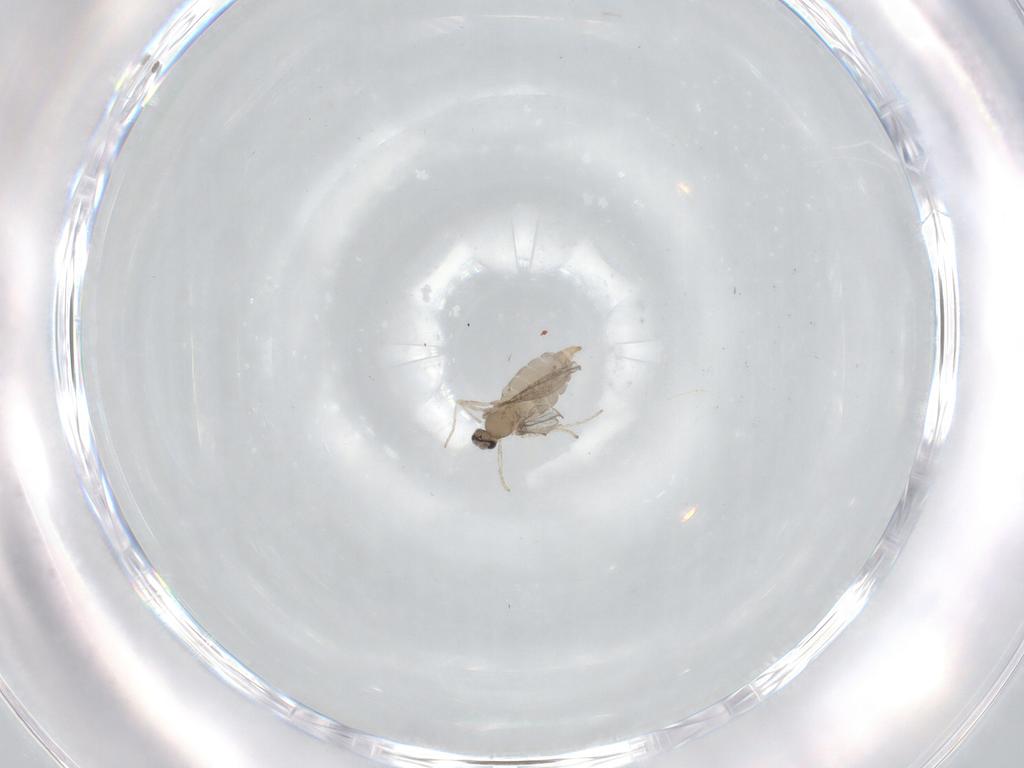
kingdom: Animalia
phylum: Arthropoda
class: Insecta
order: Diptera
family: Cecidomyiidae
